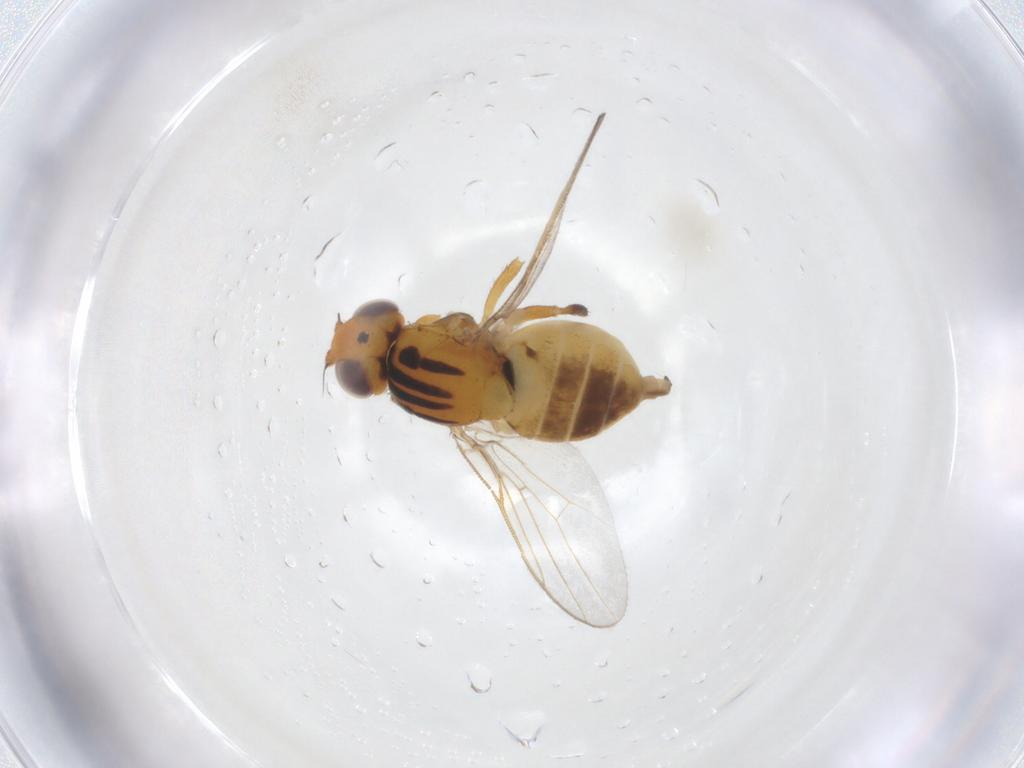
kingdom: Animalia
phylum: Arthropoda
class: Insecta
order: Diptera
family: Chloropidae
